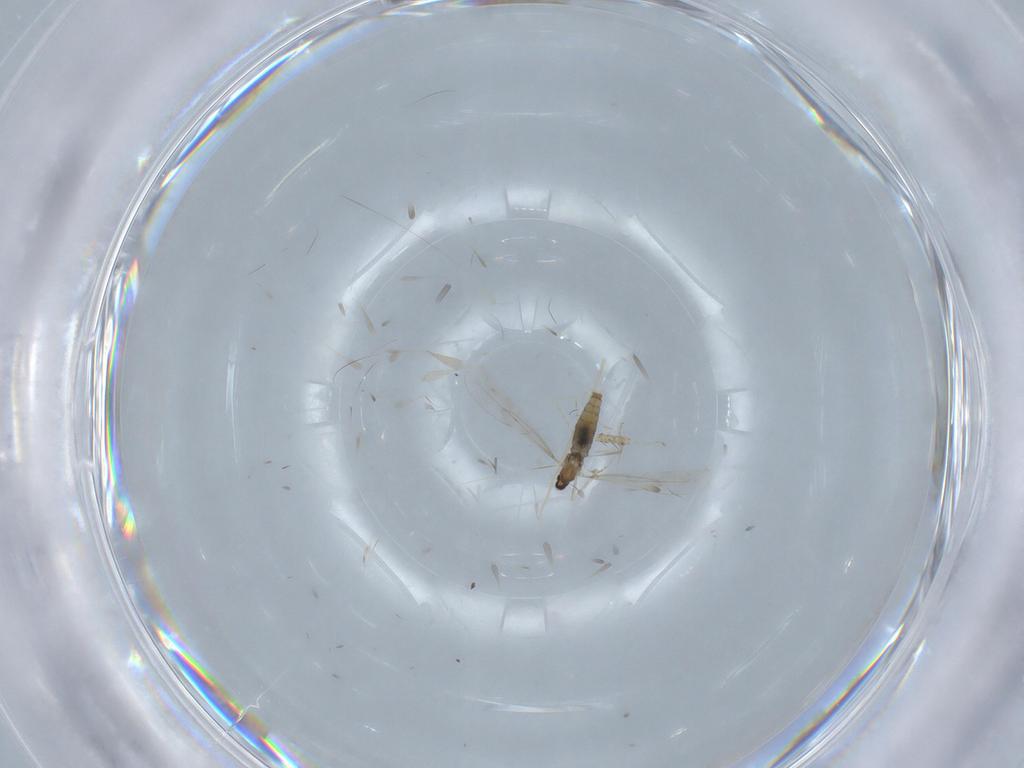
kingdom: Animalia
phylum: Arthropoda
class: Insecta
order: Diptera
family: Cecidomyiidae
